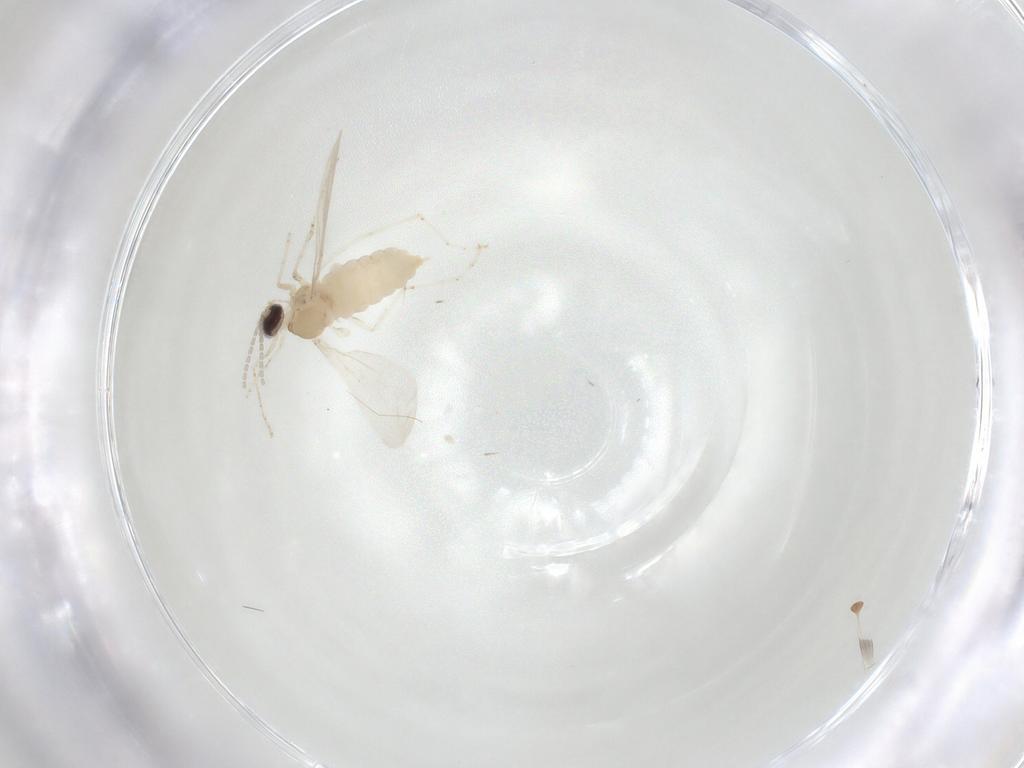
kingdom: Animalia
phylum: Arthropoda
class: Insecta
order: Diptera
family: Cecidomyiidae
